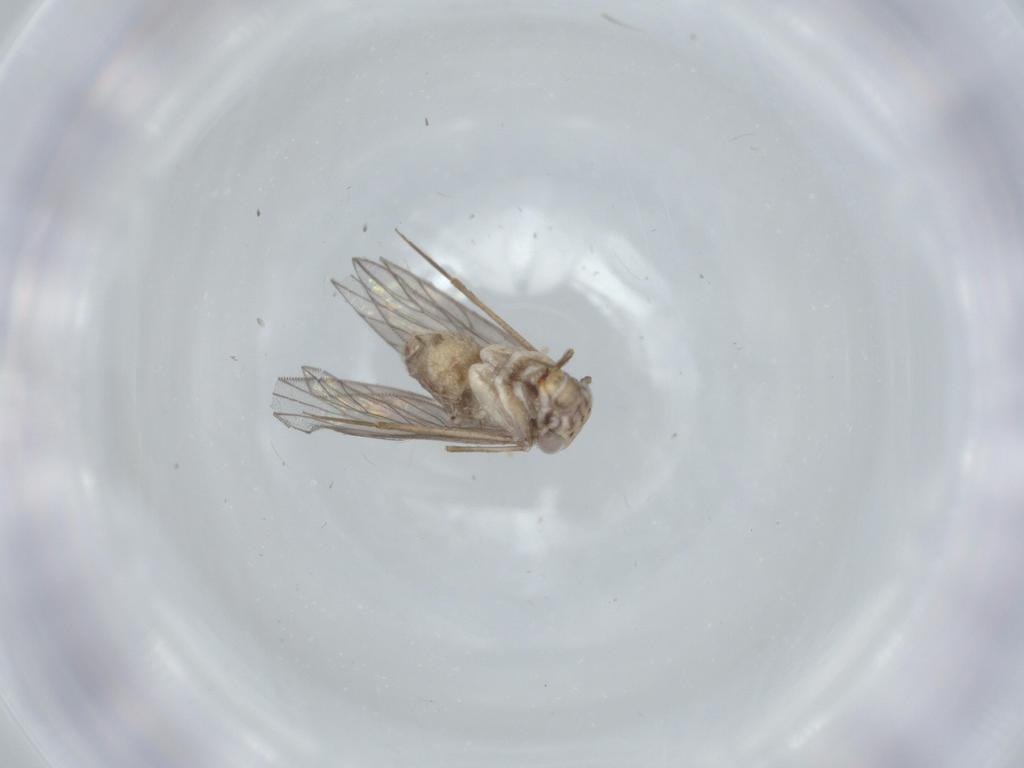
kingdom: Animalia
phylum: Arthropoda
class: Insecta
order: Psocodea
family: Lepidopsocidae
